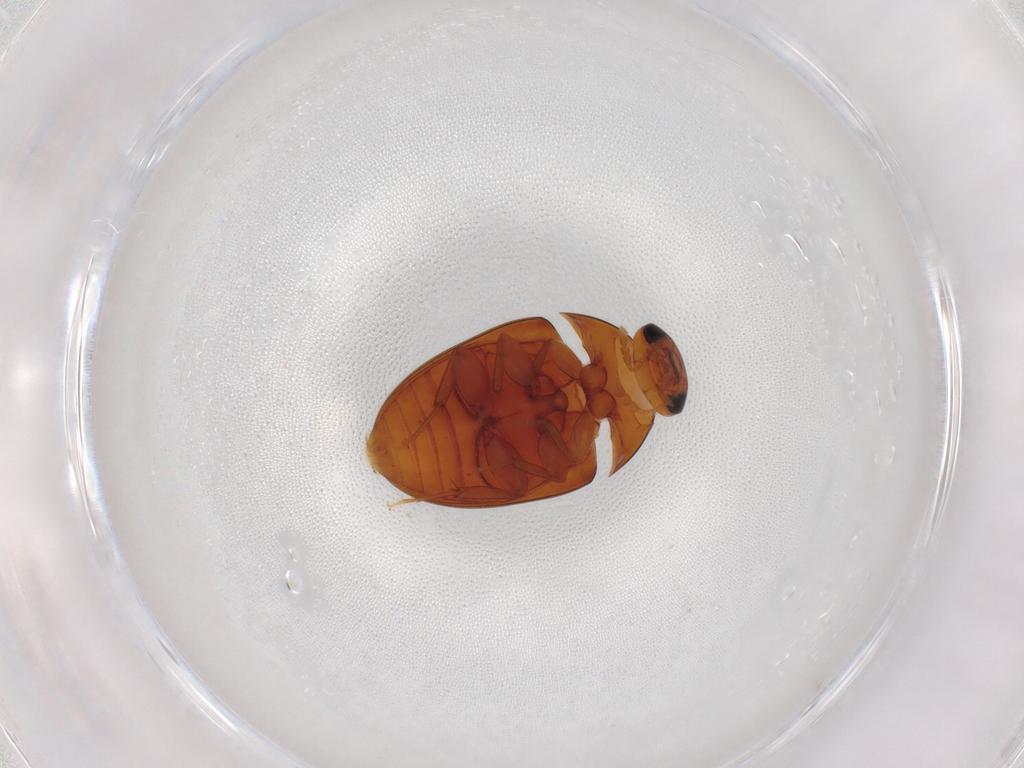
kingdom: Animalia
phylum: Arthropoda
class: Insecta
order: Coleoptera
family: Phalacridae
